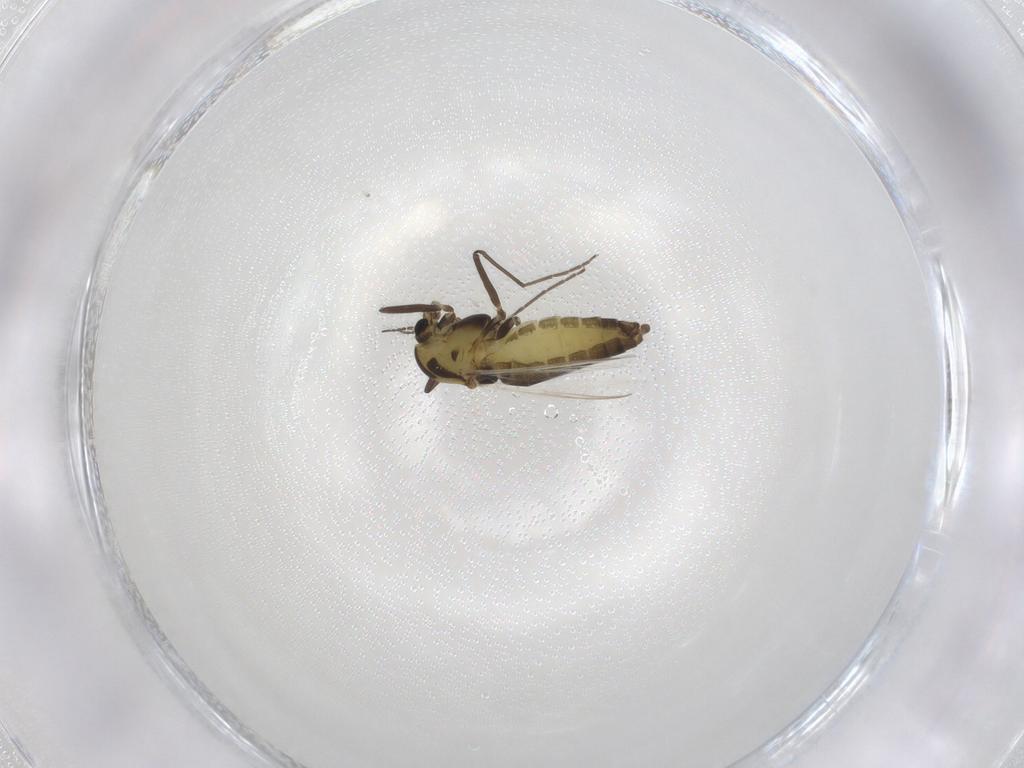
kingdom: Animalia
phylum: Arthropoda
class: Insecta
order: Diptera
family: Chironomidae
